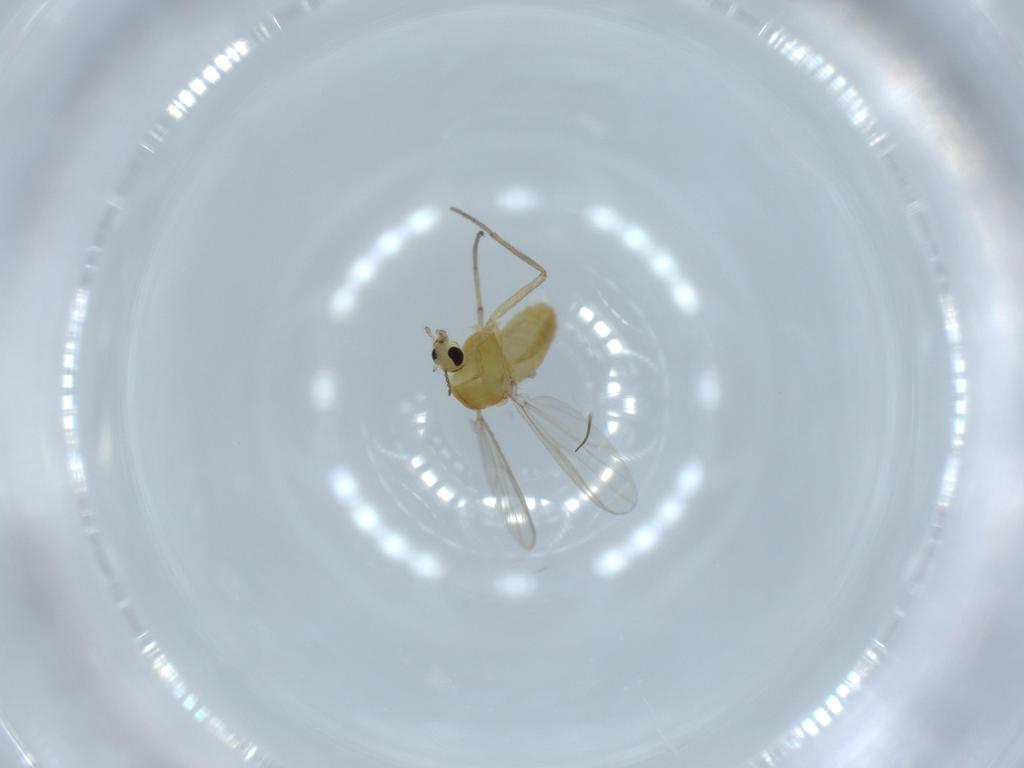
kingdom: Animalia
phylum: Arthropoda
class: Insecta
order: Diptera
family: Chironomidae
